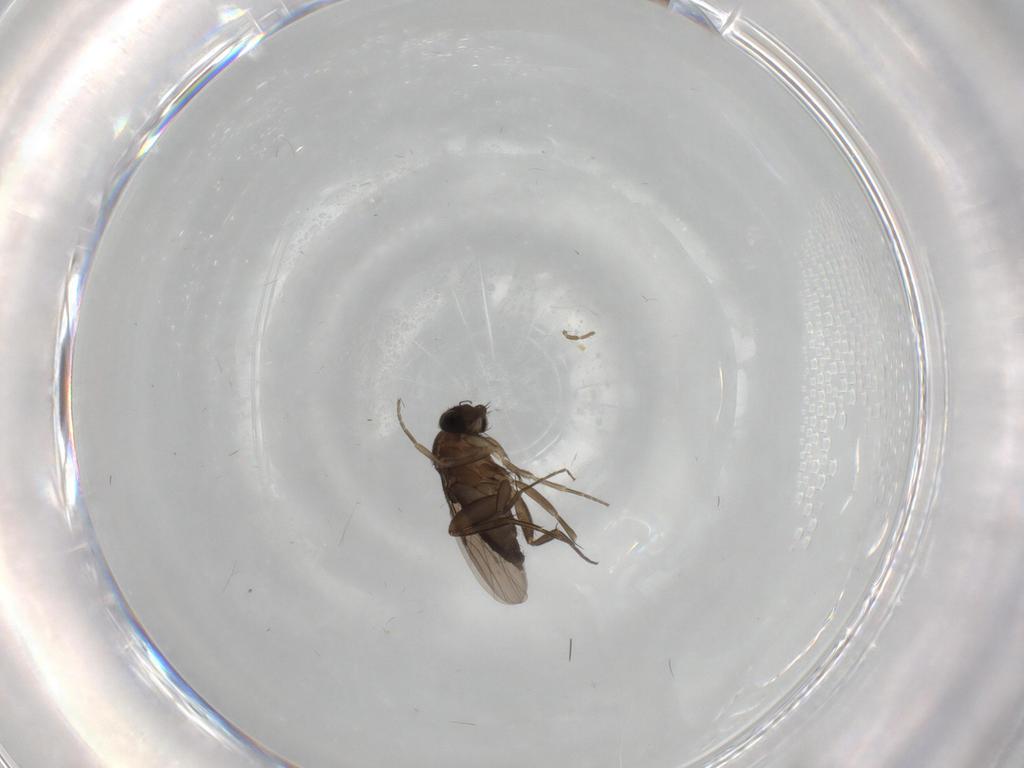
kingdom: Animalia
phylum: Arthropoda
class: Insecta
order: Diptera
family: Phoridae
